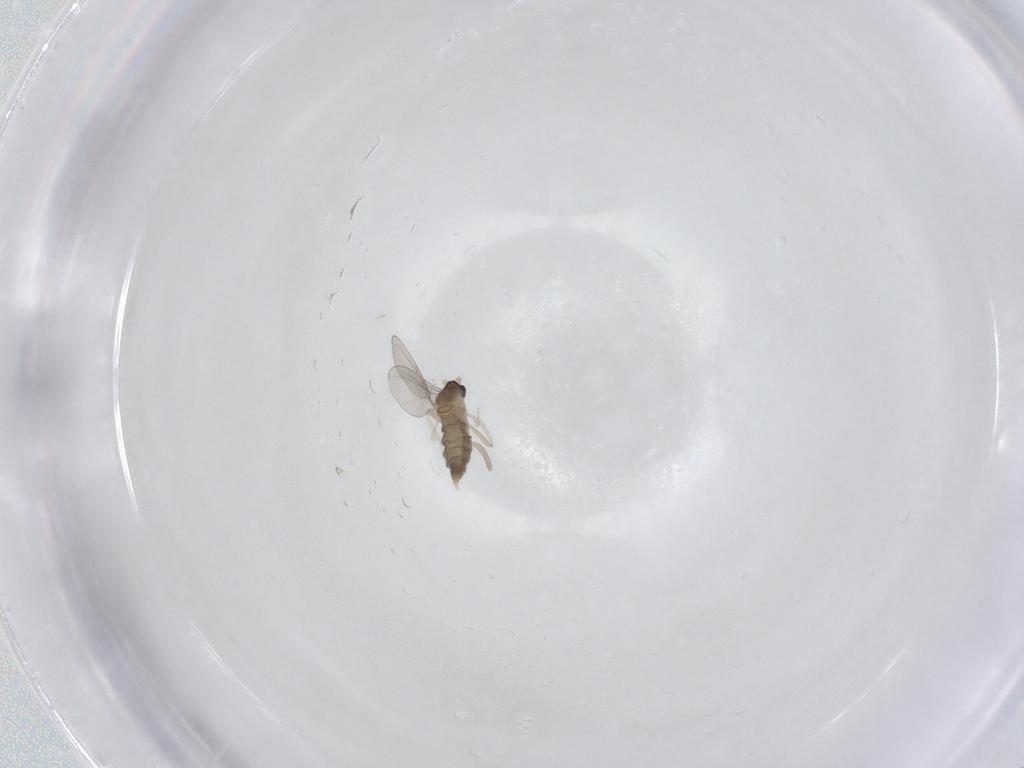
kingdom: Animalia
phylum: Arthropoda
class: Insecta
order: Diptera
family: Cecidomyiidae
